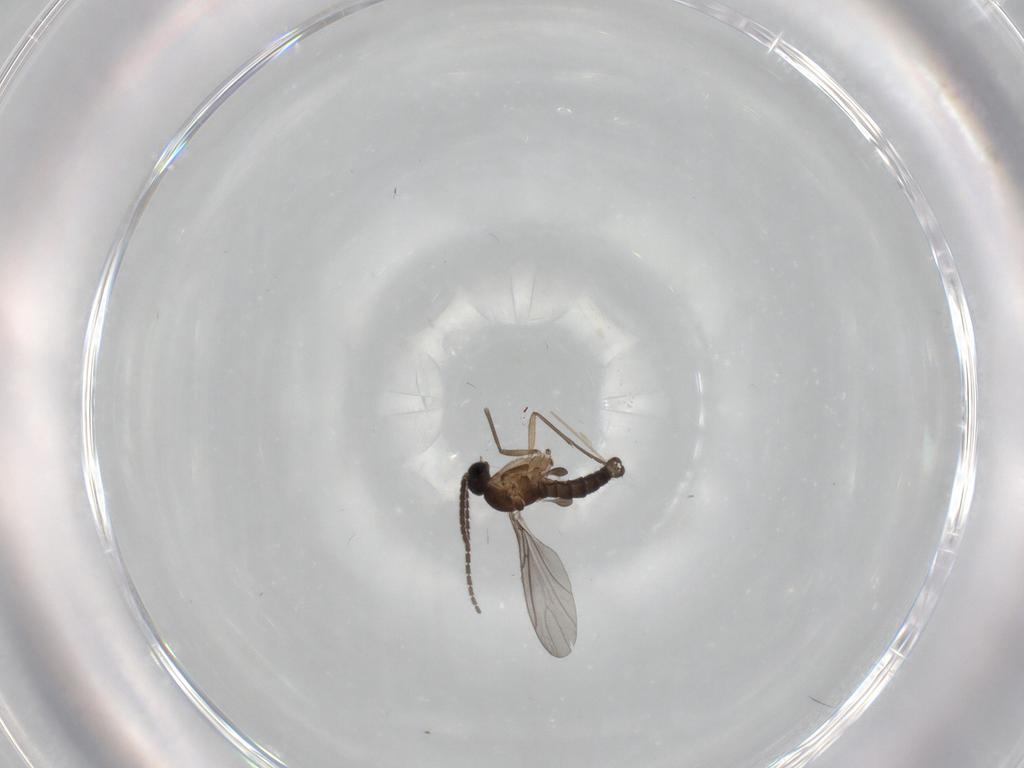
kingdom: Animalia
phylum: Arthropoda
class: Insecta
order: Diptera
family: Sciaridae
